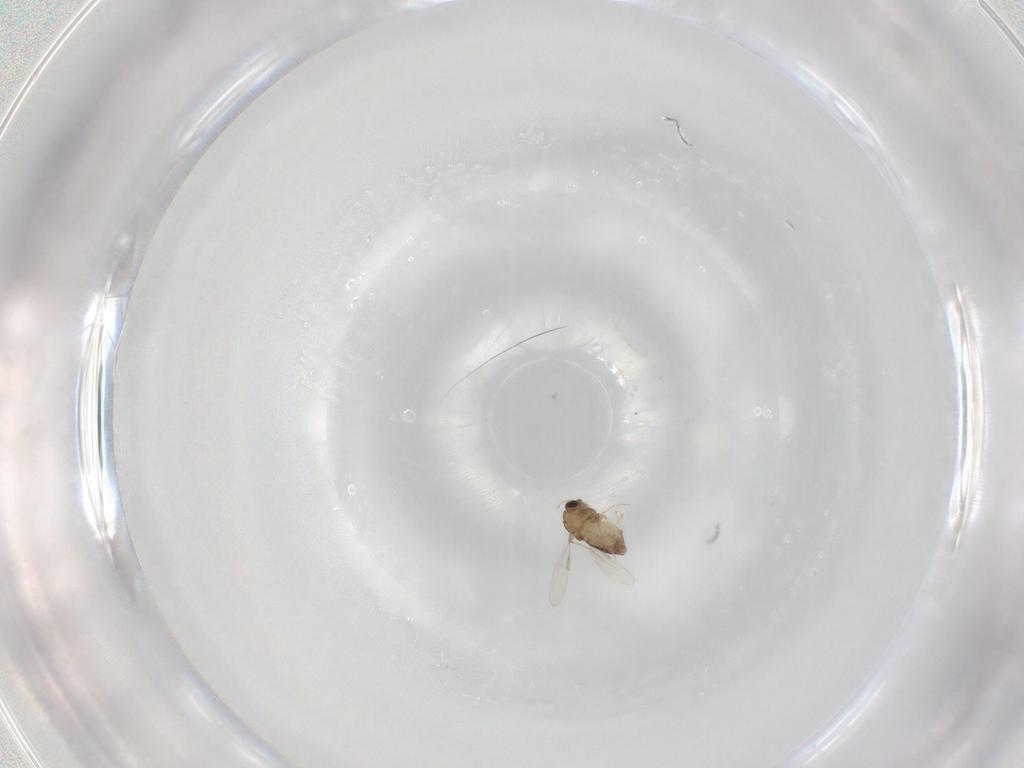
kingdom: Animalia
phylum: Arthropoda
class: Insecta
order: Diptera
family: Chironomidae
